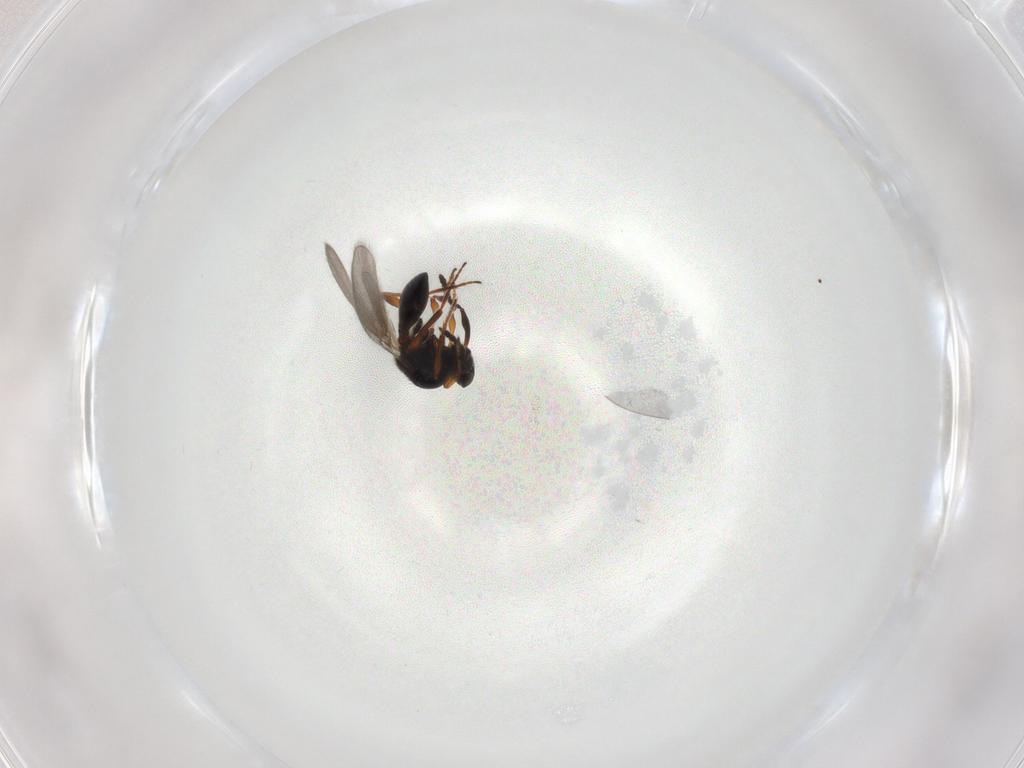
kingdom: Animalia
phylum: Arthropoda
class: Insecta
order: Hymenoptera
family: Platygastridae
